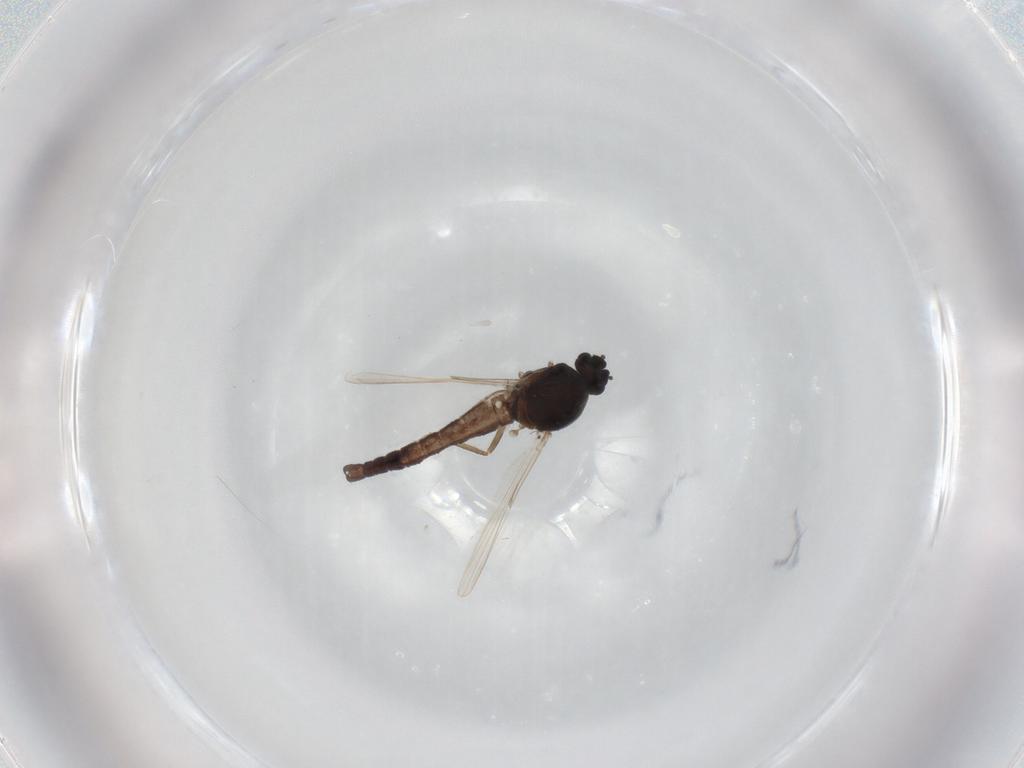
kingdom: Animalia
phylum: Arthropoda
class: Insecta
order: Diptera
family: Ceratopogonidae
